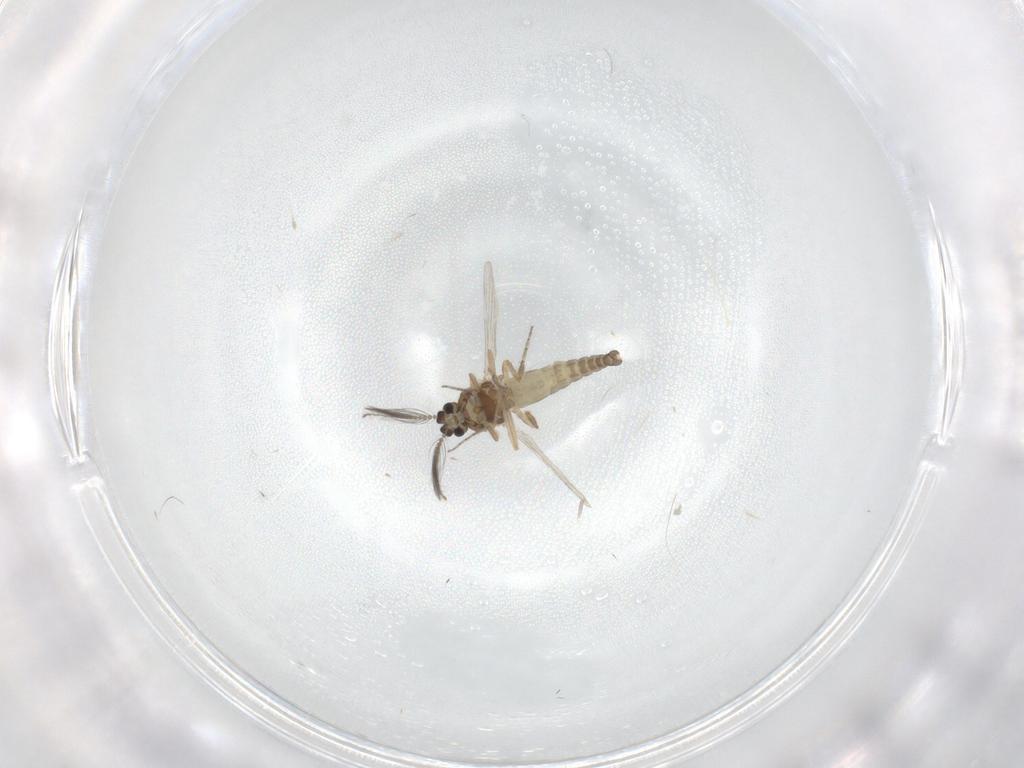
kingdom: Animalia
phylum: Arthropoda
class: Insecta
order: Diptera
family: Ceratopogonidae
